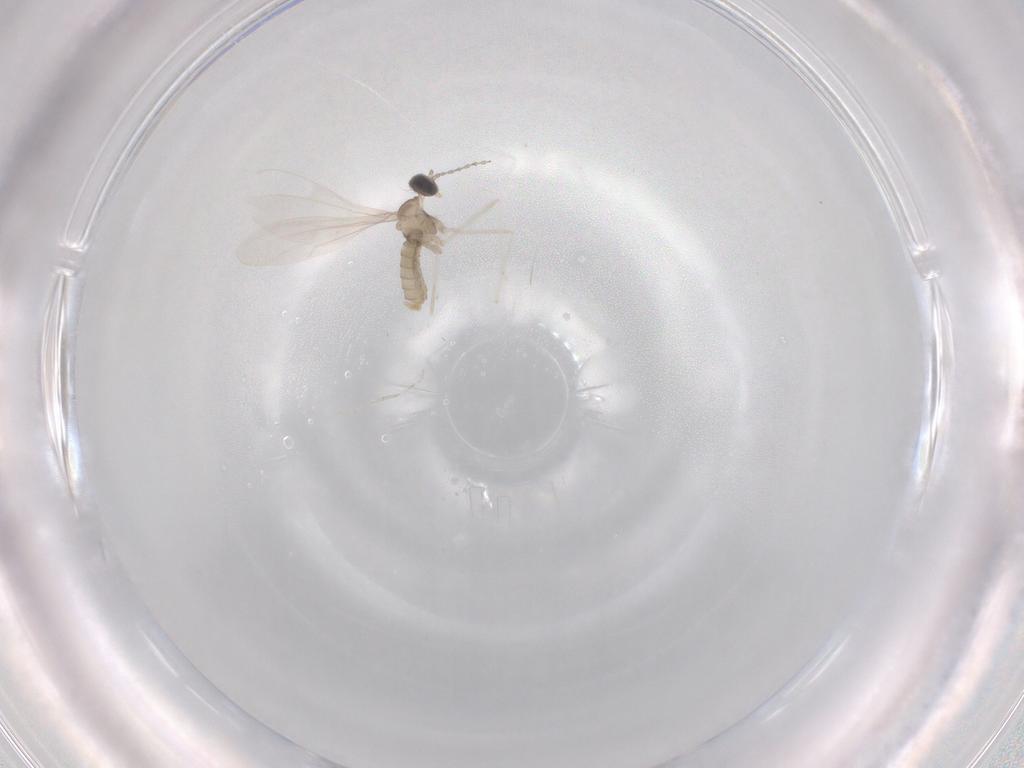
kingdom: Animalia
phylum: Arthropoda
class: Insecta
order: Diptera
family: Cecidomyiidae
